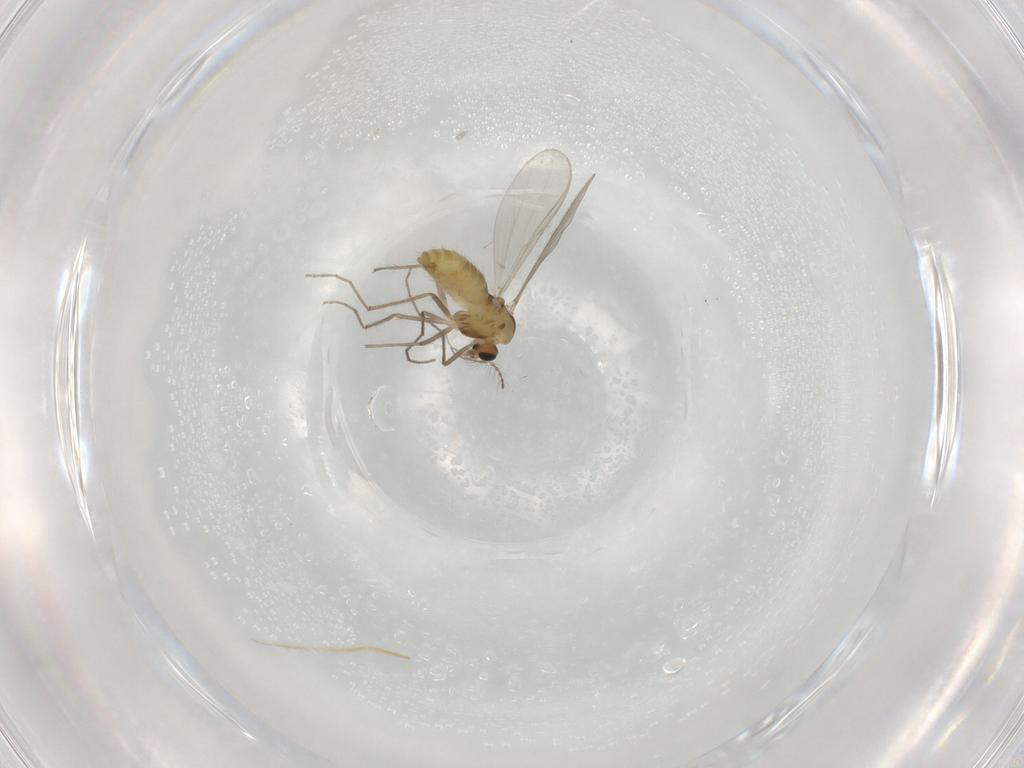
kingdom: Animalia
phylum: Arthropoda
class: Insecta
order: Diptera
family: Chironomidae
